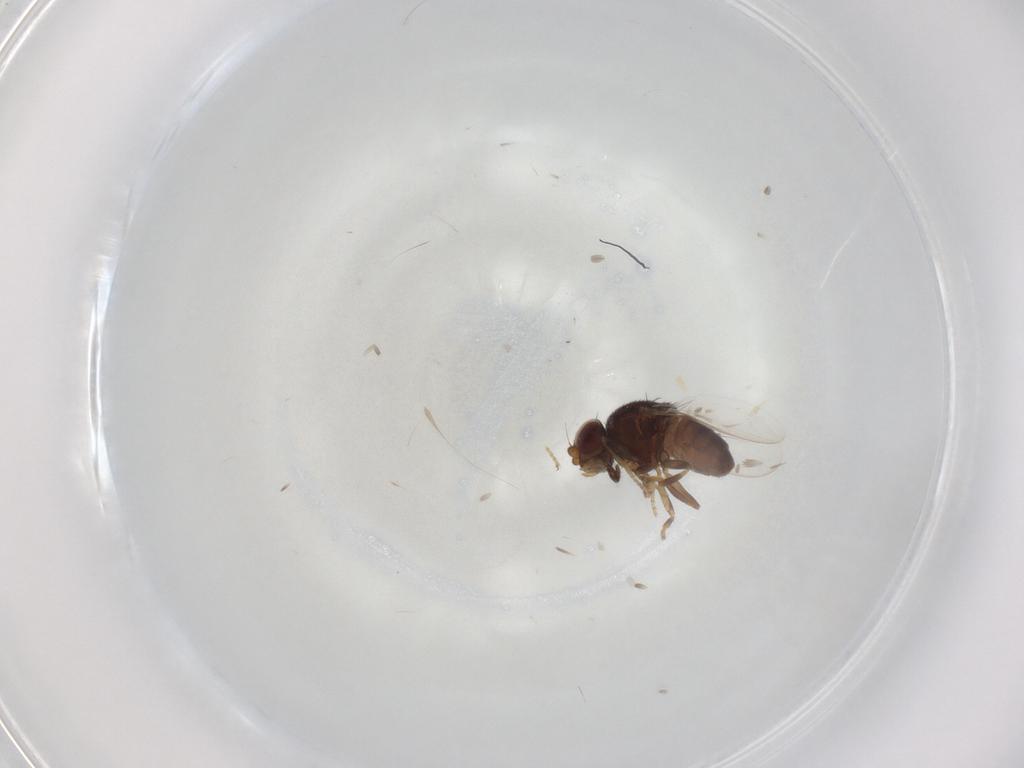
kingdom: Animalia
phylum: Arthropoda
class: Insecta
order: Diptera
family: Chloropidae
